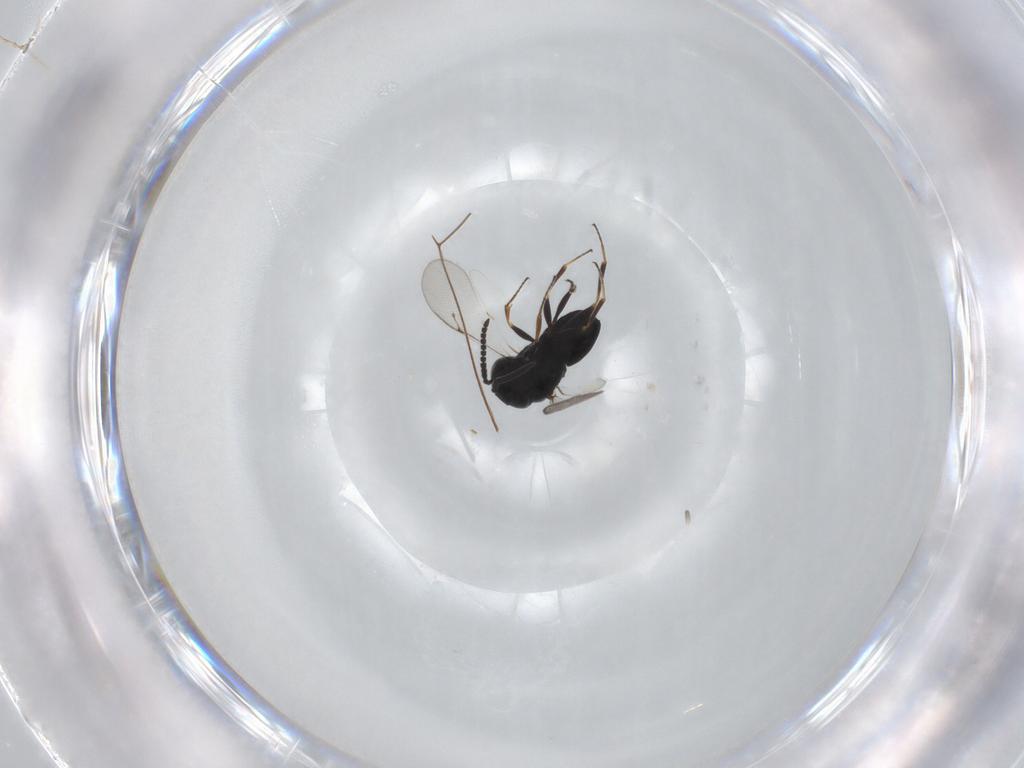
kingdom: Animalia
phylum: Arthropoda
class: Insecta
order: Hymenoptera
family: Scelionidae
